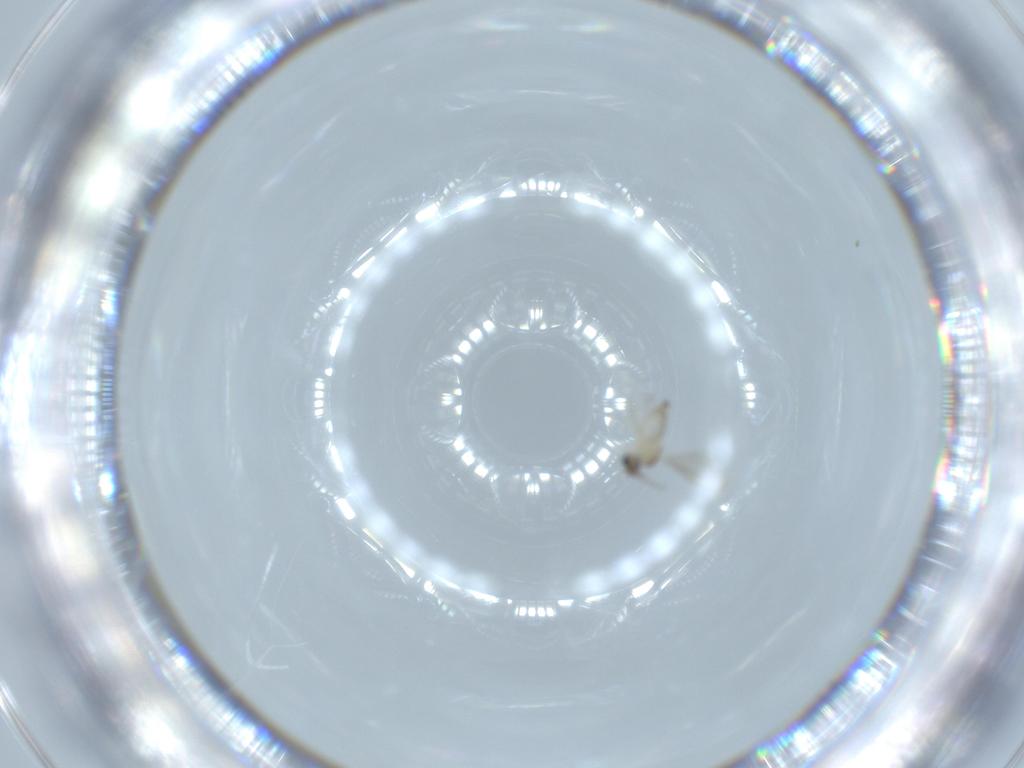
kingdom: Animalia
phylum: Arthropoda
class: Insecta
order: Diptera
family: Cecidomyiidae
